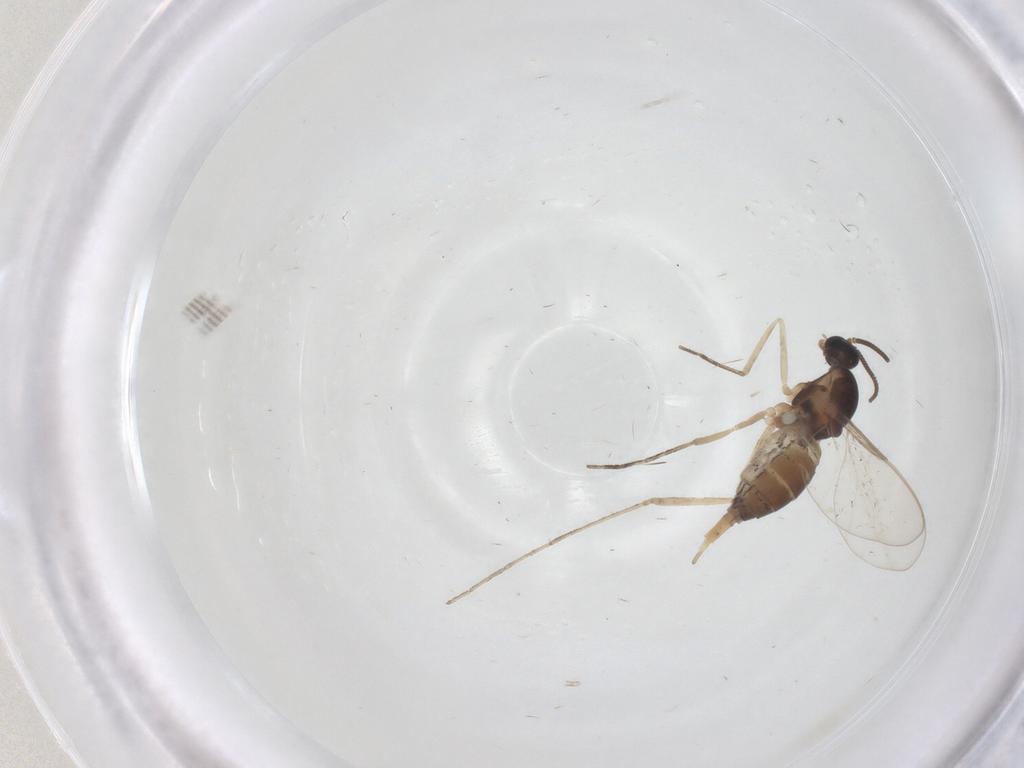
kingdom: Animalia
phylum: Arthropoda
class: Insecta
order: Diptera
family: Cecidomyiidae
